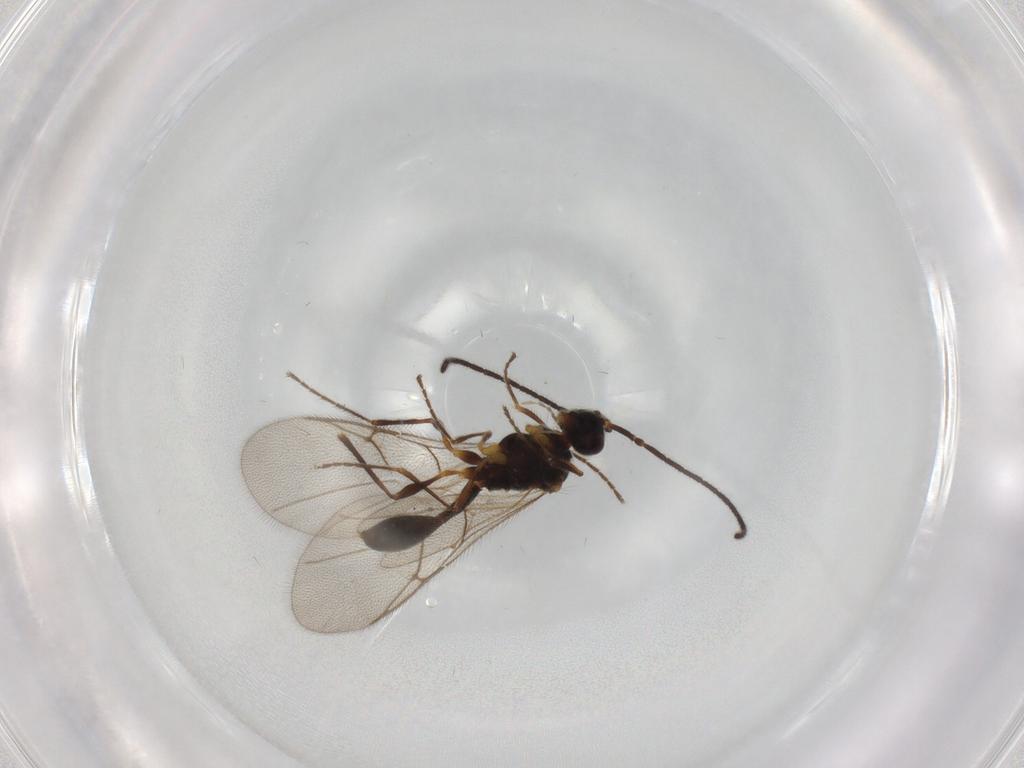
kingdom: Animalia
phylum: Arthropoda
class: Insecta
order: Hymenoptera
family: Diapriidae
